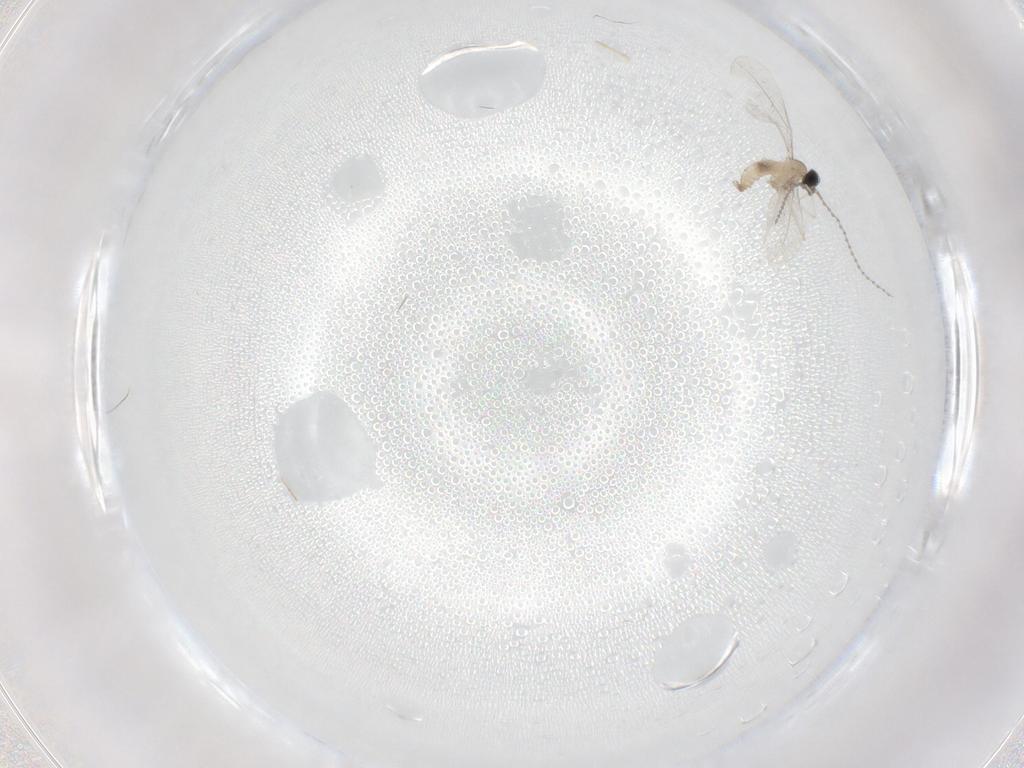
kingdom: Animalia
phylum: Arthropoda
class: Insecta
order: Diptera
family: Cecidomyiidae
